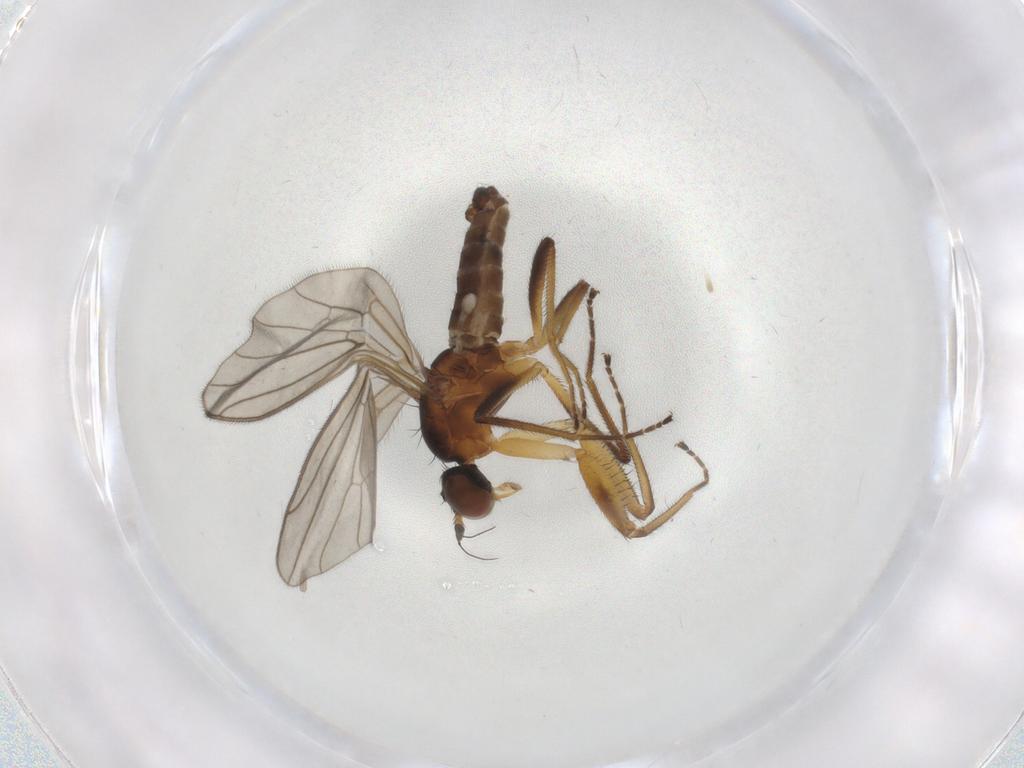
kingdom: Animalia
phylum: Arthropoda
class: Insecta
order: Diptera
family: Empididae
